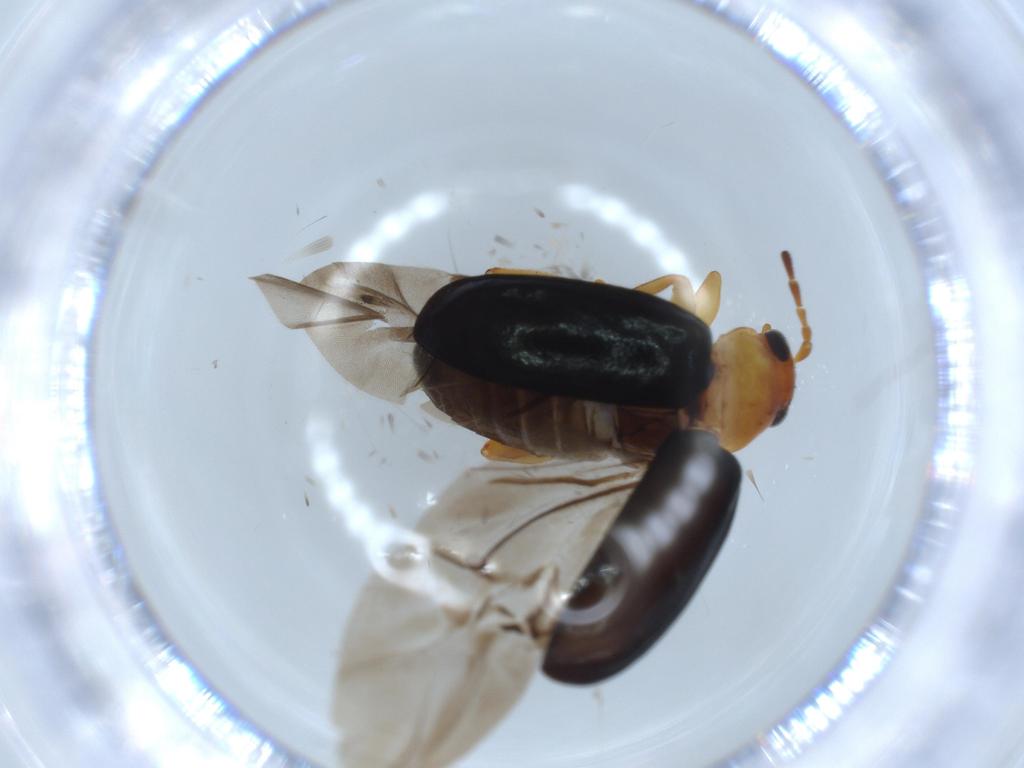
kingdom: Animalia
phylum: Arthropoda
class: Insecta
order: Coleoptera
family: Chrysomelidae
